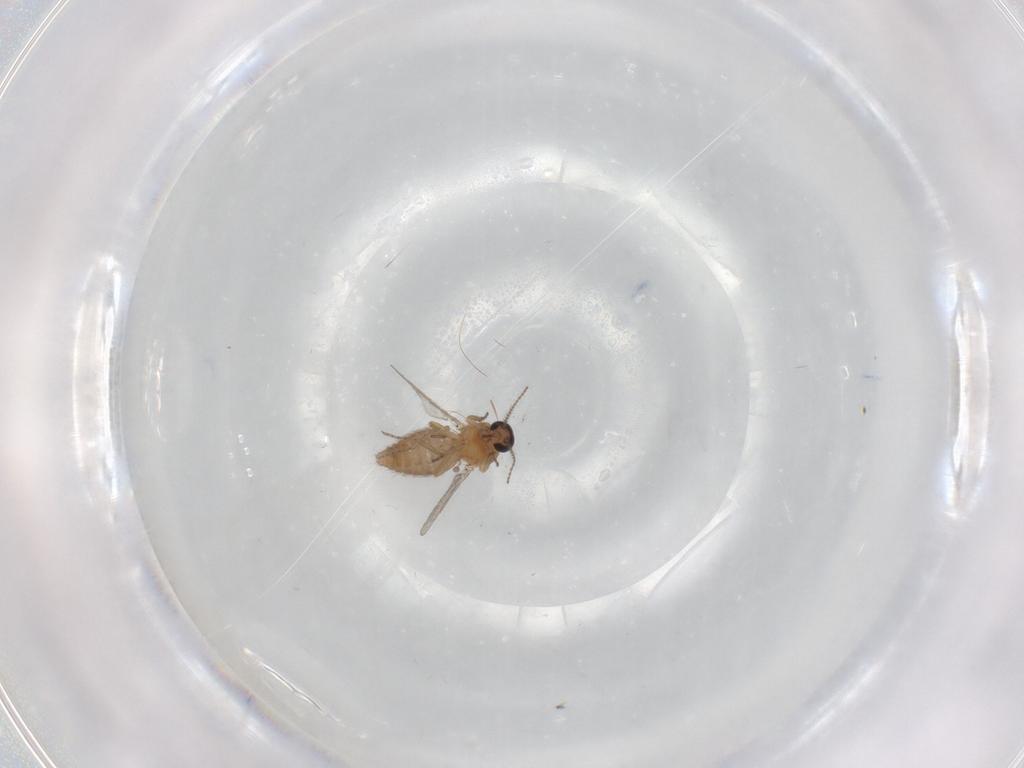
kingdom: Animalia
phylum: Arthropoda
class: Insecta
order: Diptera
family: Ceratopogonidae
